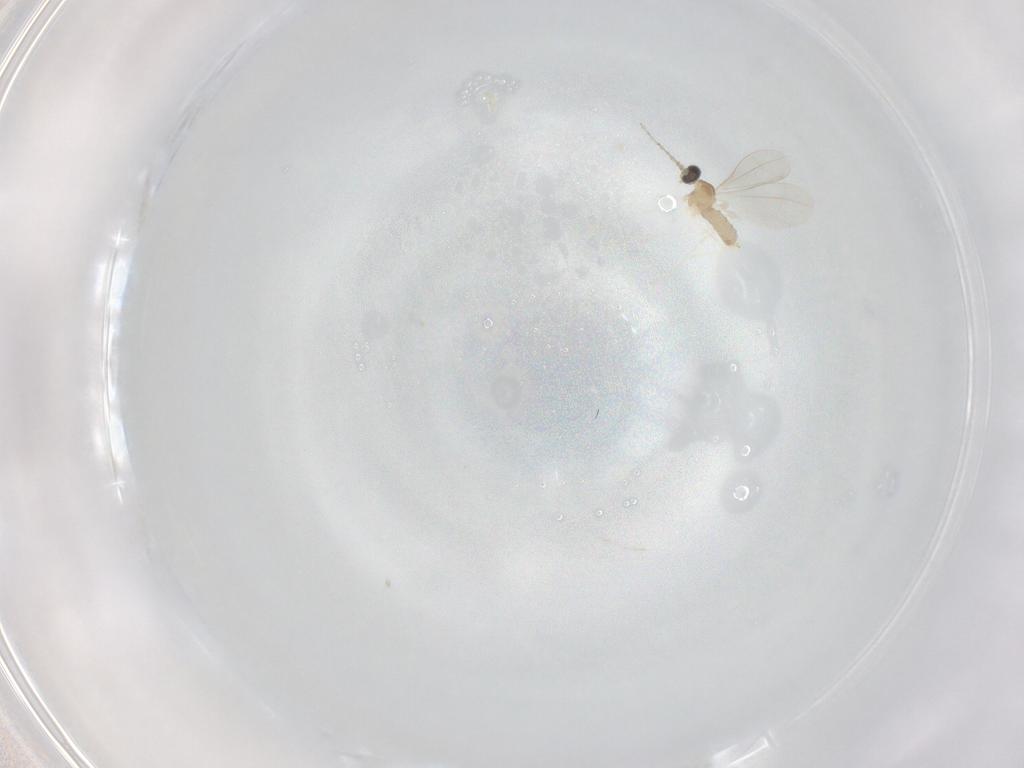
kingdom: Animalia
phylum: Arthropoda
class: Insecta
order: Diptera
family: Cecidomyiidae
